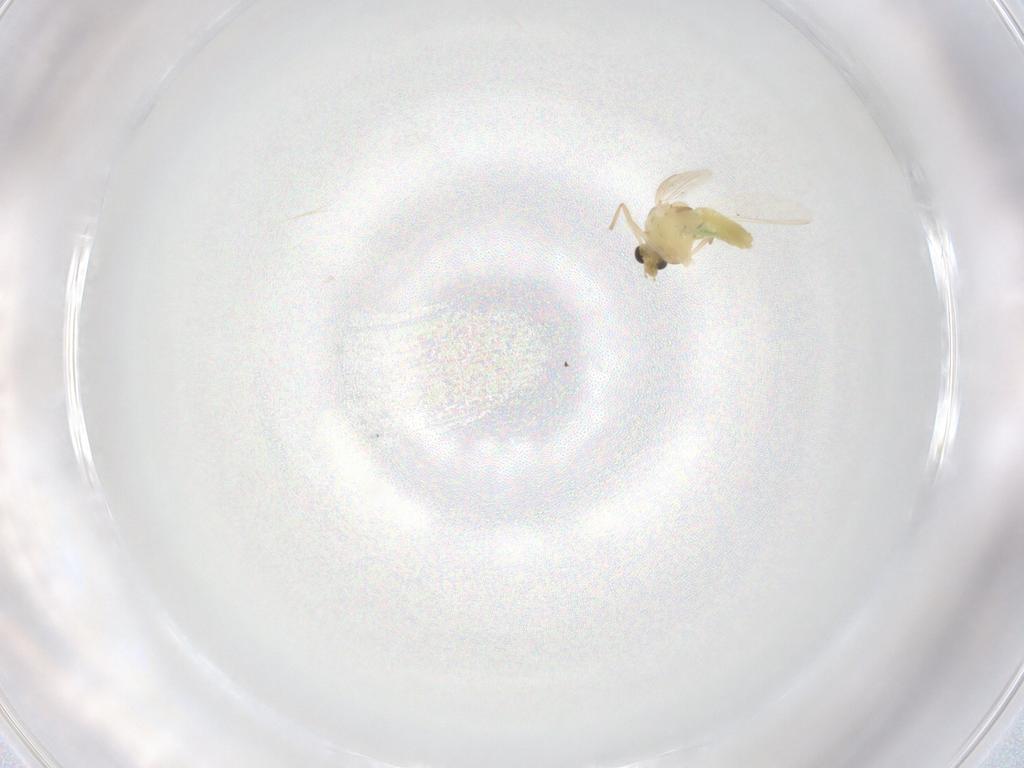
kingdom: Animalia
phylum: Arthropoda
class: Insecta
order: Diptera
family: Chironomidae
